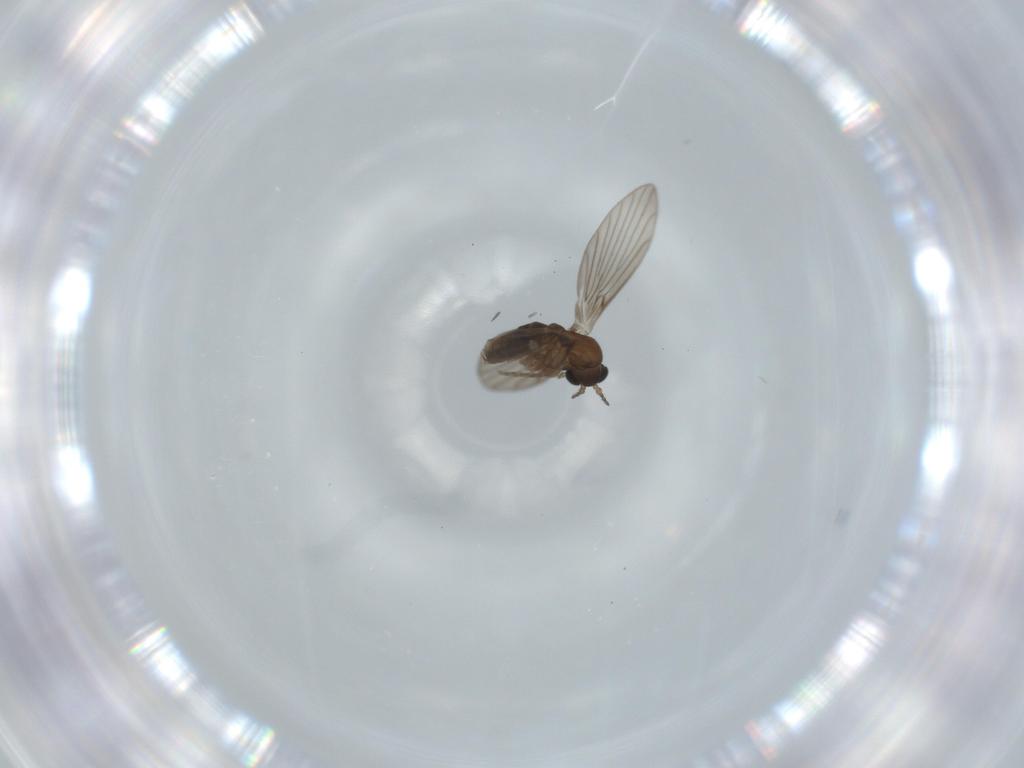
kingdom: Animalia
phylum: Arthropoda
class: Insecta
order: Diptera
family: Psychodidae
